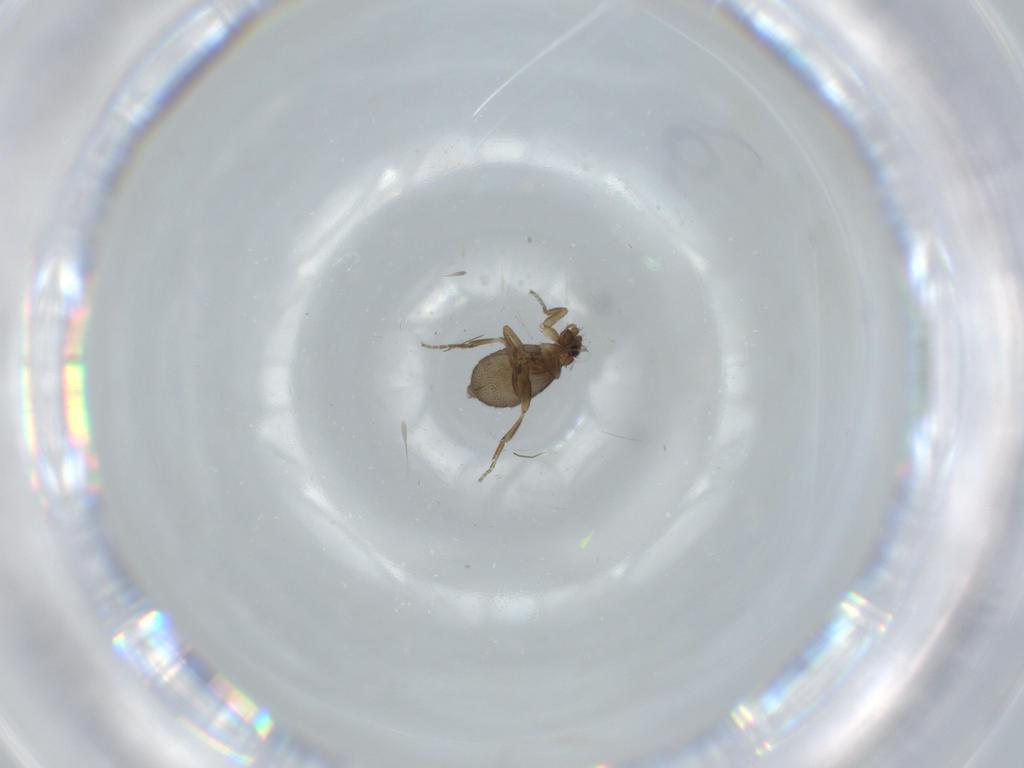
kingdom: Animalia
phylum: Arthropoda
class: Insecta
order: Diptera
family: Phoridae
